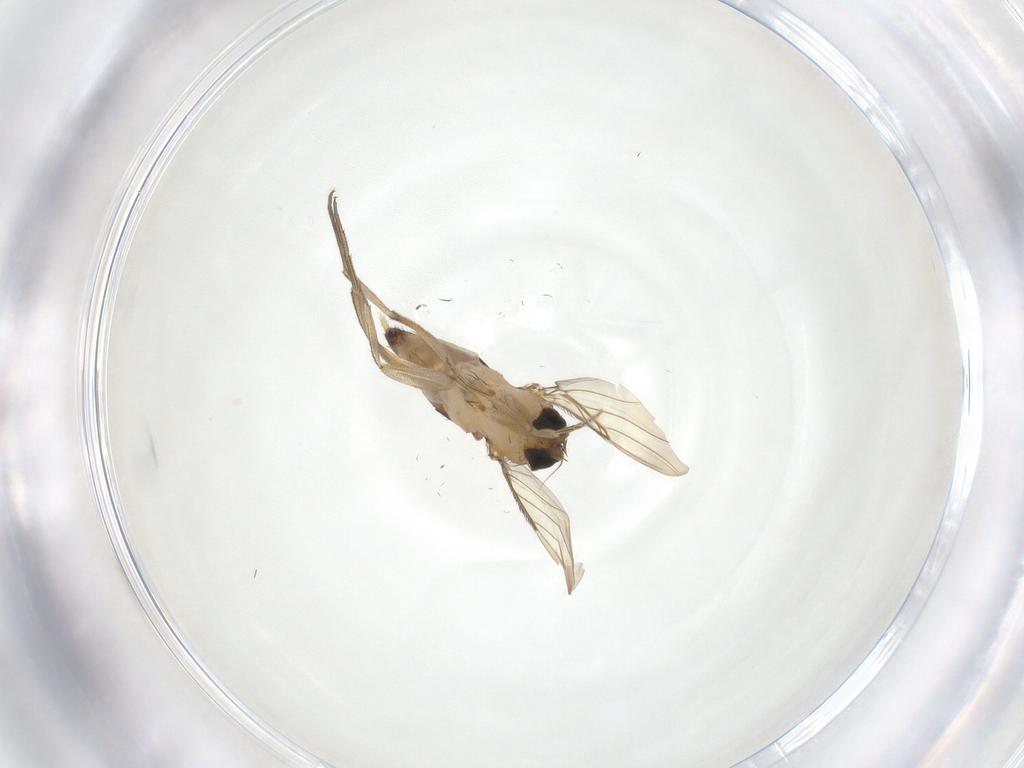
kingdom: Animalia
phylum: Arthropoda
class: Insecta
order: Diptera
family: Phoridae
